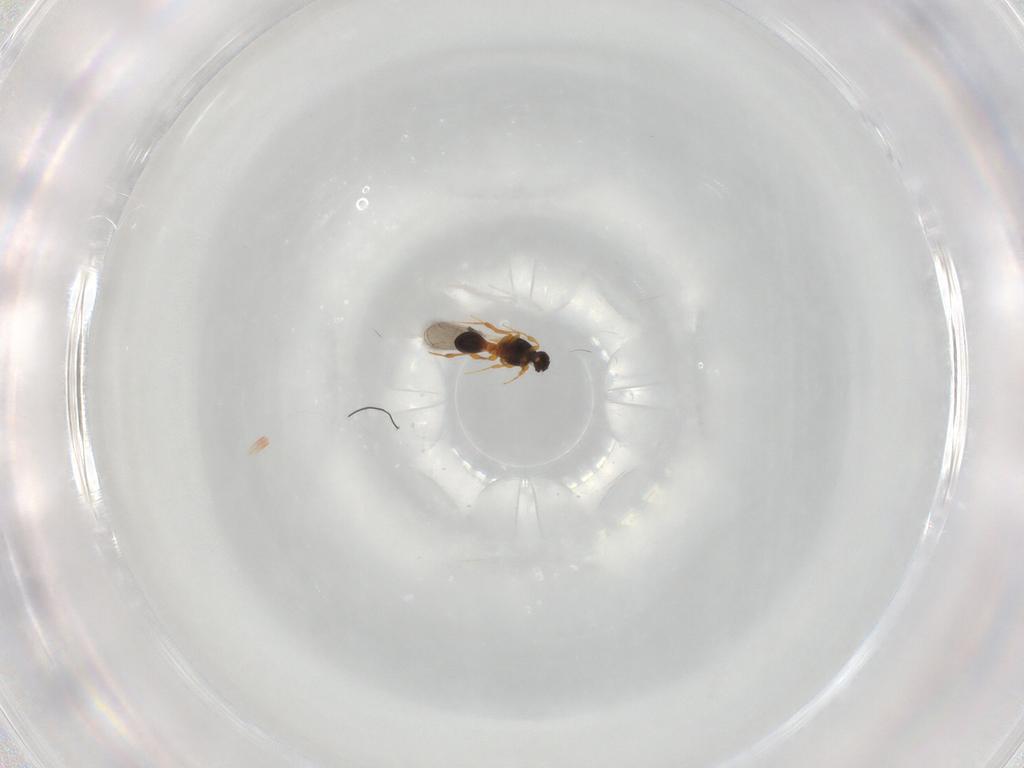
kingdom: Animalia
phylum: Arthropoda
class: Insecta
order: Hymenoptera
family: Platygastridae
